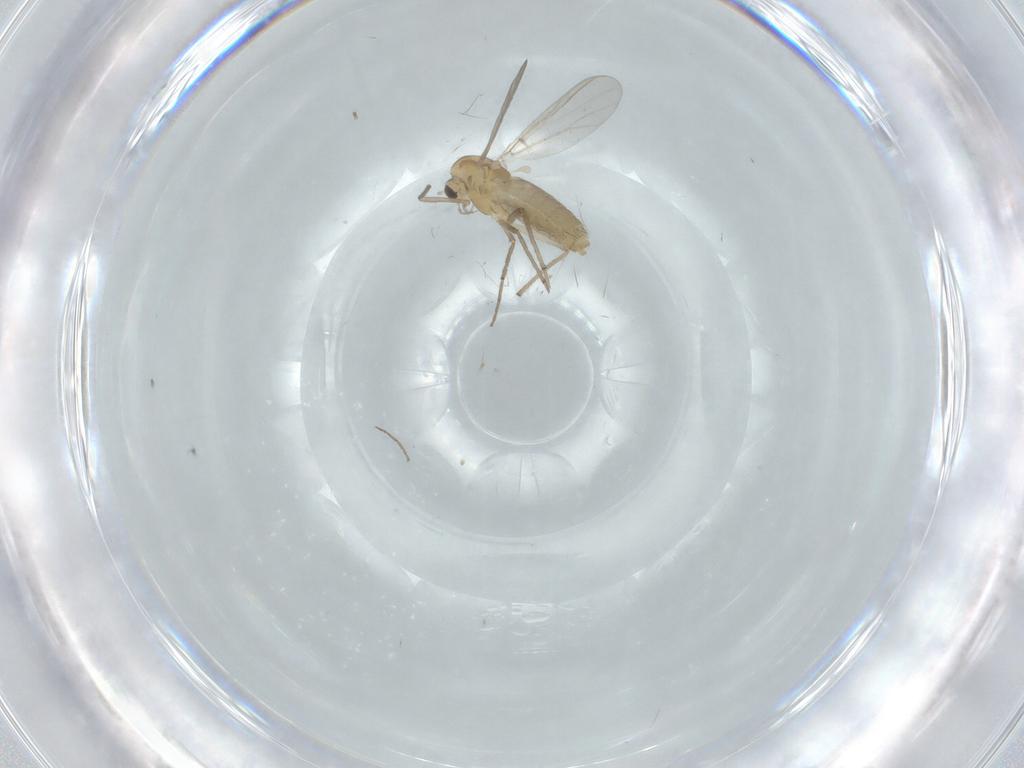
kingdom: Animalia
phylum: Arthropoda
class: Insecta
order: Diptera
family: Chironomidae
